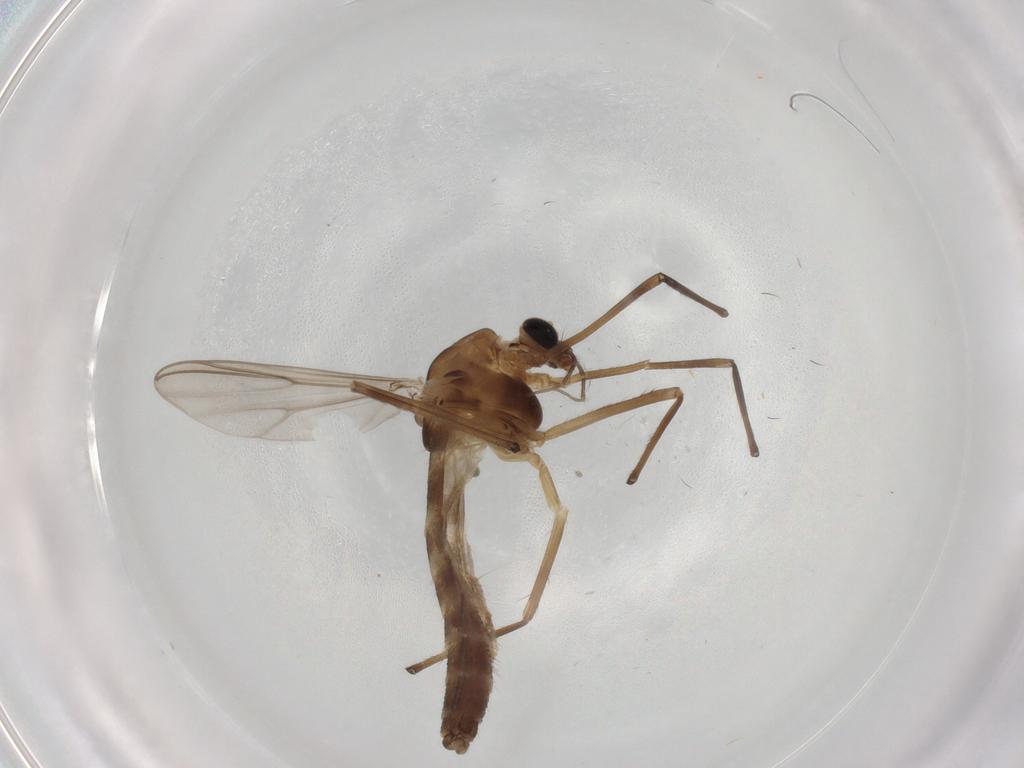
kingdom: Animalia
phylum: Arthropoda
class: Insecta
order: Diptera
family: Chironomidae
